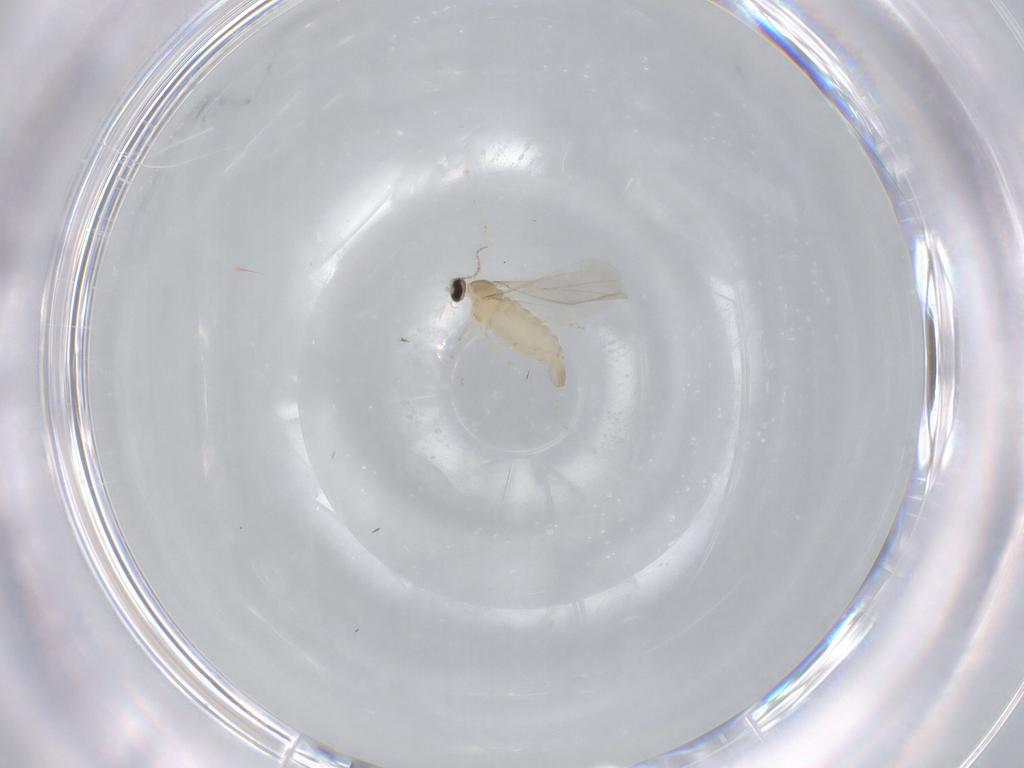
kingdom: Animalia
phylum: Arthropoda
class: Insecta
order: Diptera
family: Cecidomyiidae
